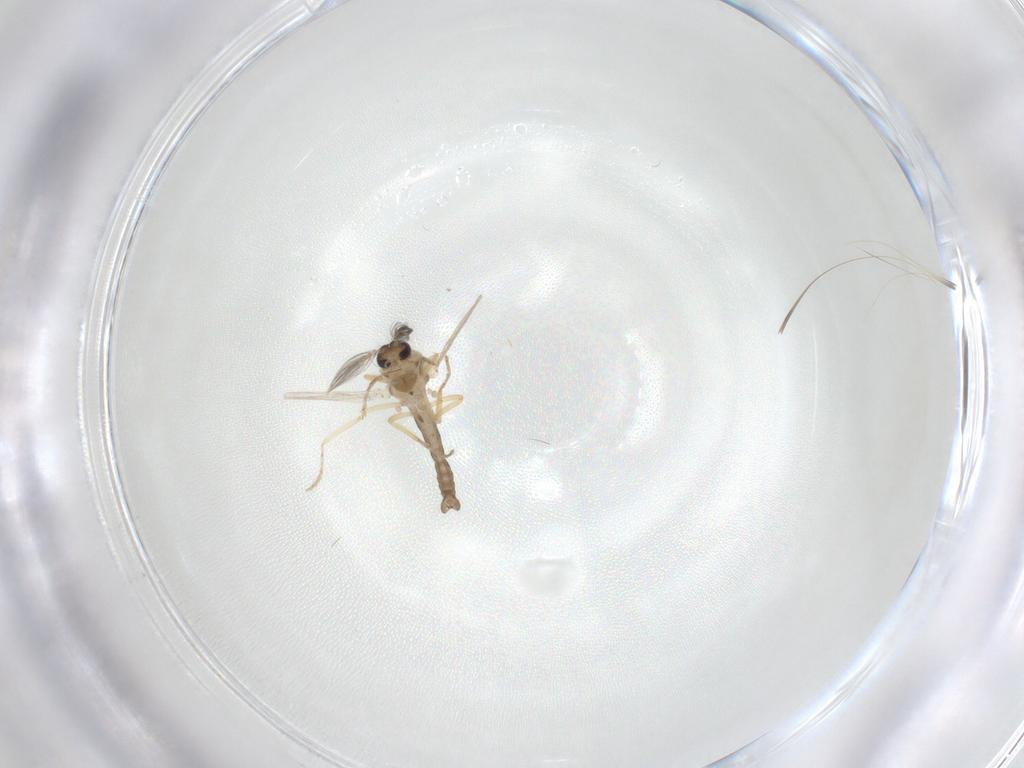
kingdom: Animalia
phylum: Arthropoda
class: Insecta
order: Diptera
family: Ceratopogonidae
